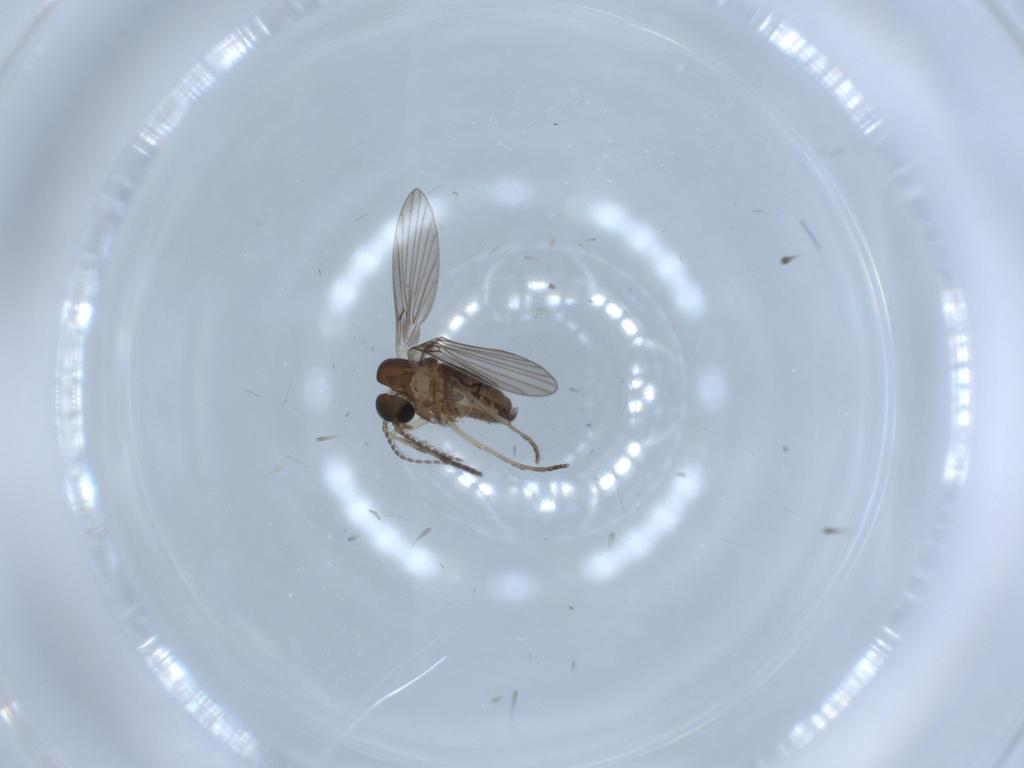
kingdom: Animalia
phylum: Arthropoda
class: Insecta
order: Diptera
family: Psychodidae
